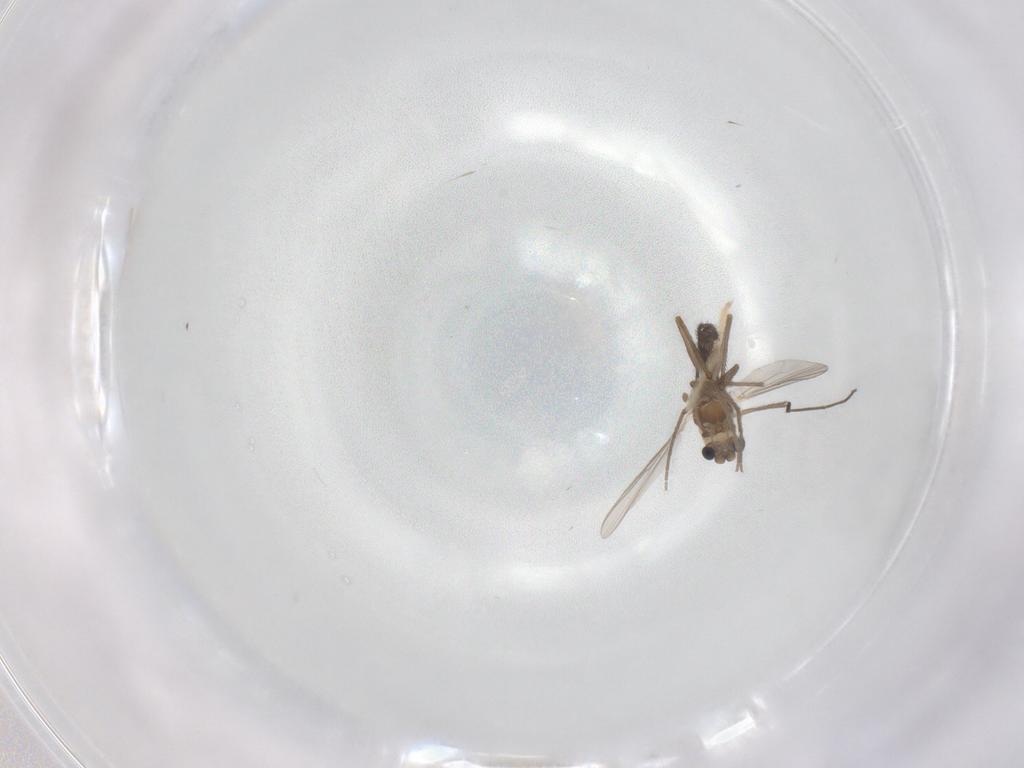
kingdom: Animalia
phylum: Arthropoda
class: Insecta
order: Diptera
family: Chironomidae
